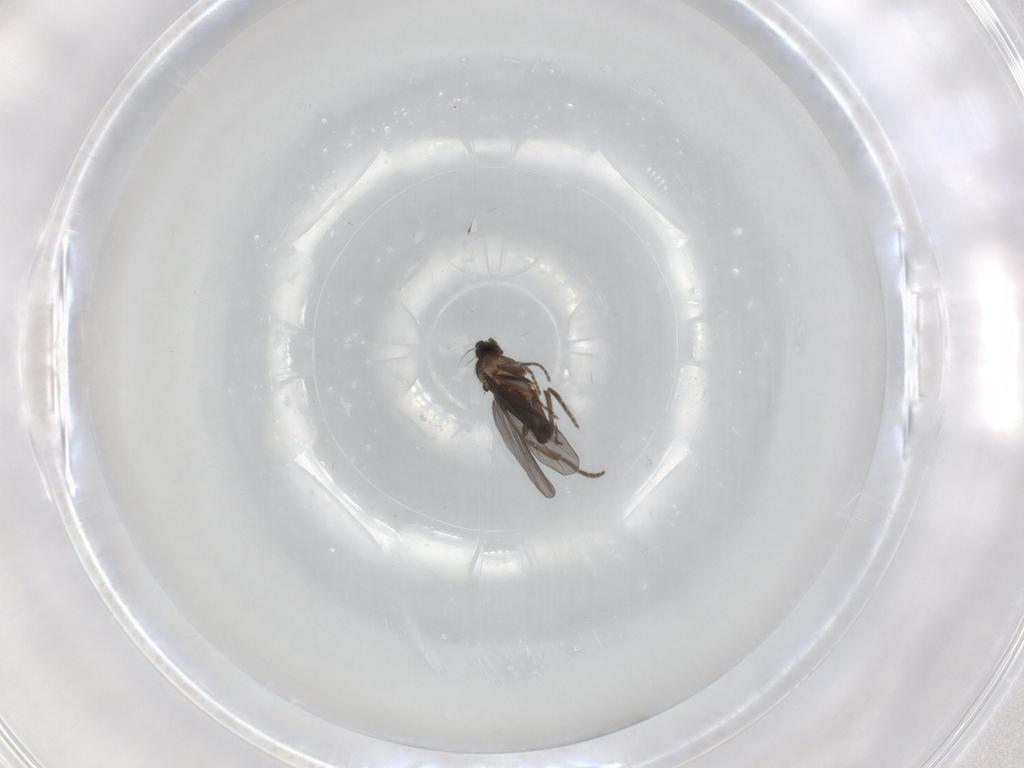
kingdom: Animalia
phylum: Arthropoda
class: Insecta
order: Diptera
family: Phoridae
